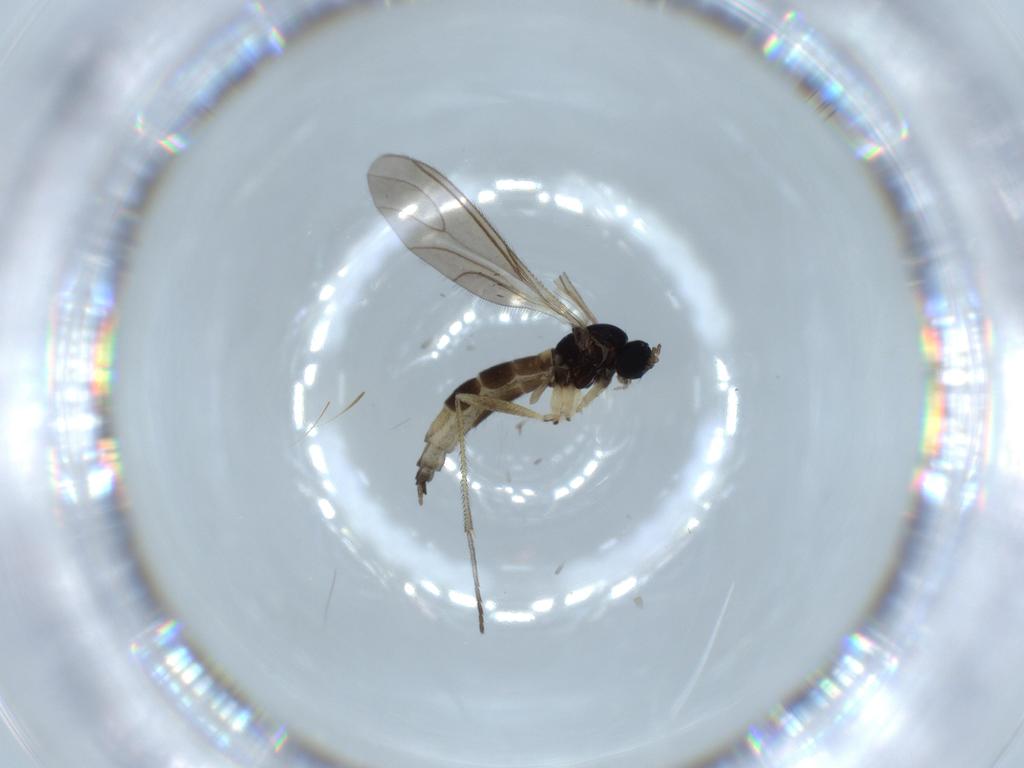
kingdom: Animalia
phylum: Arthropoda
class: Insecta
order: Diptera
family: Sciaridae
